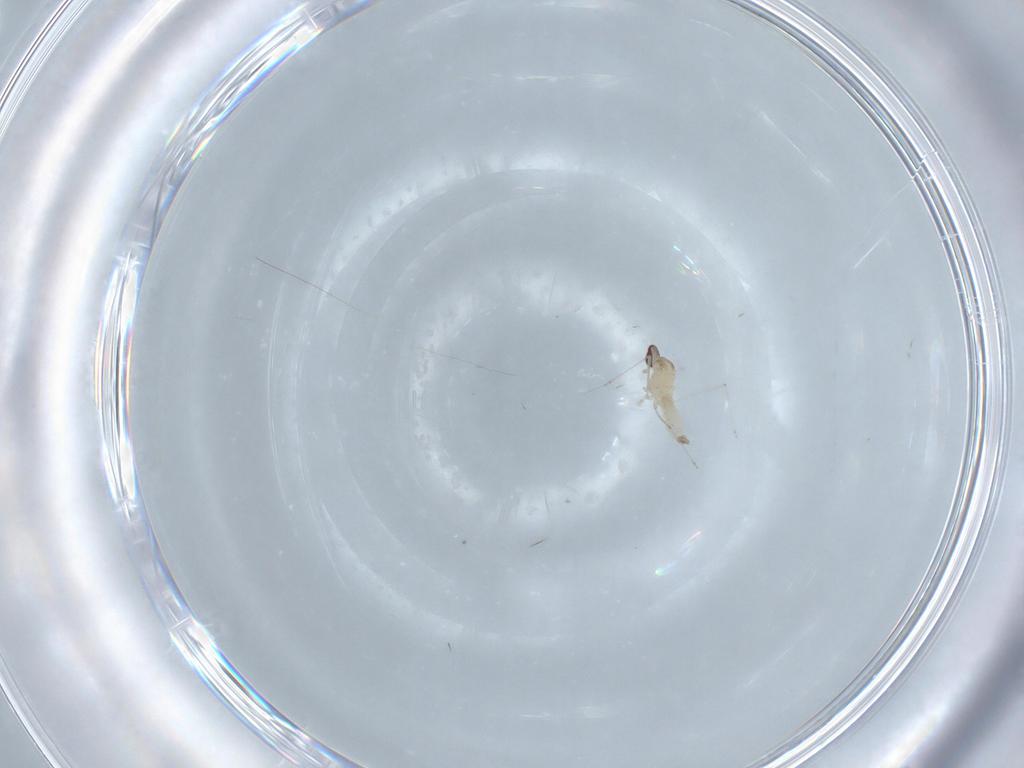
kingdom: Animalia
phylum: Arthropoda
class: Insecta
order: Diptera
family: Cecidomyiidae
